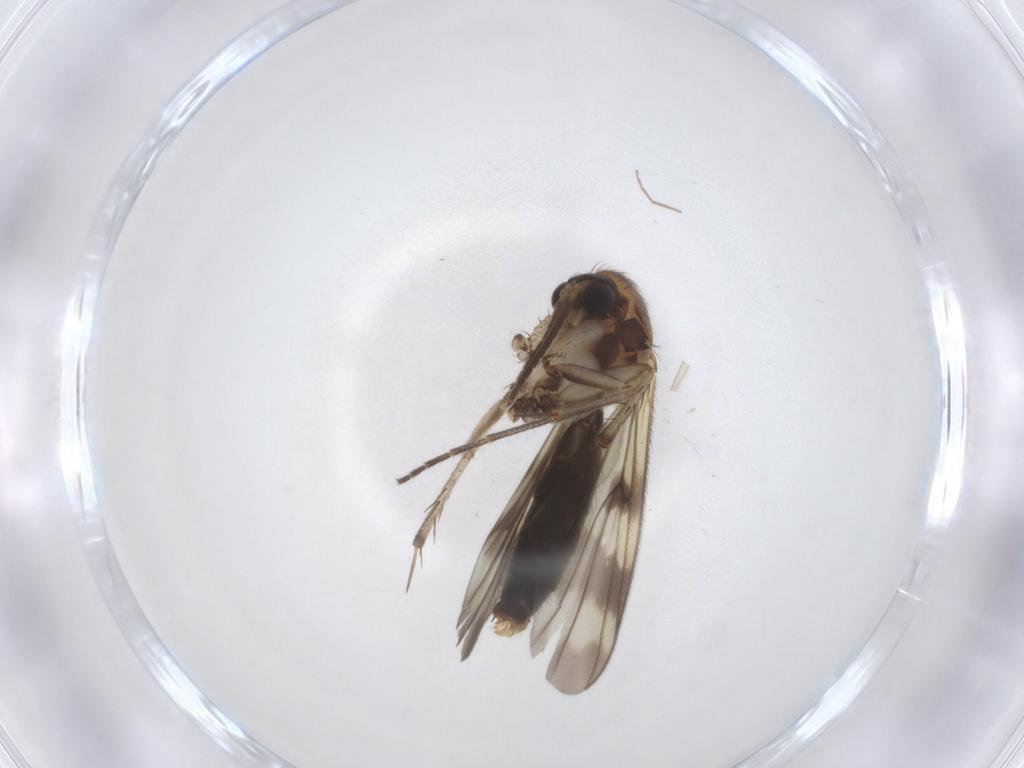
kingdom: Animalia
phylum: Arthropoda
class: Insecta
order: Diptera
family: Mycetophilidae
